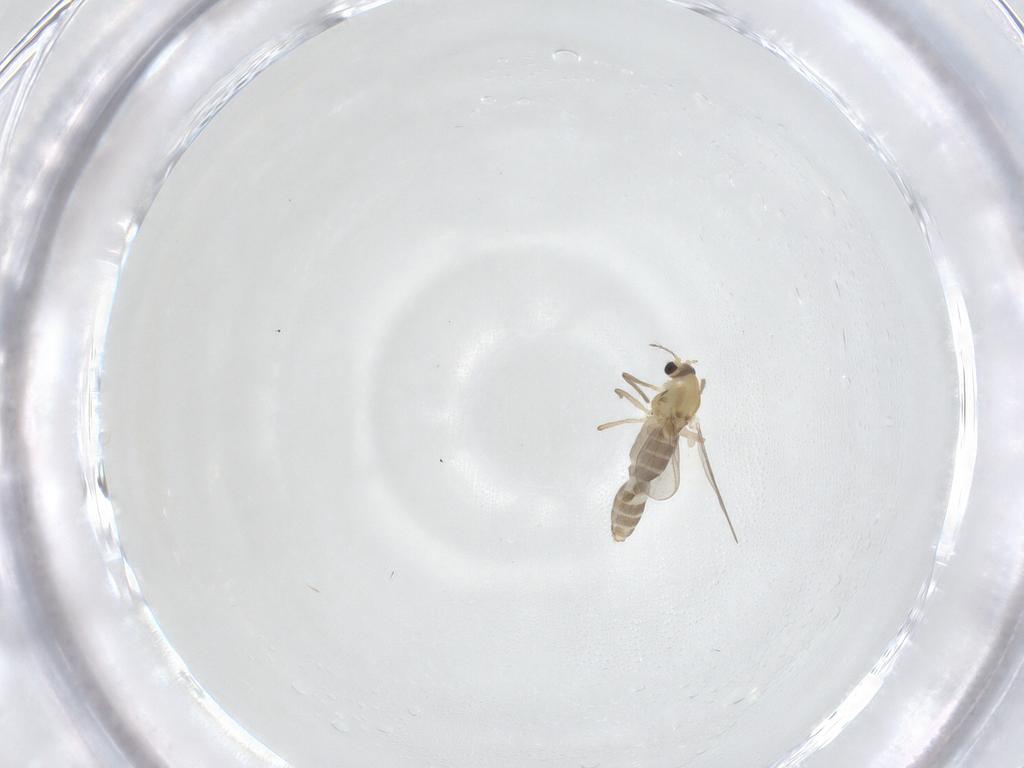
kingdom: Animalia
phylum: Arthropoda
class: Insecta
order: Diptera
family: Chironomidae
